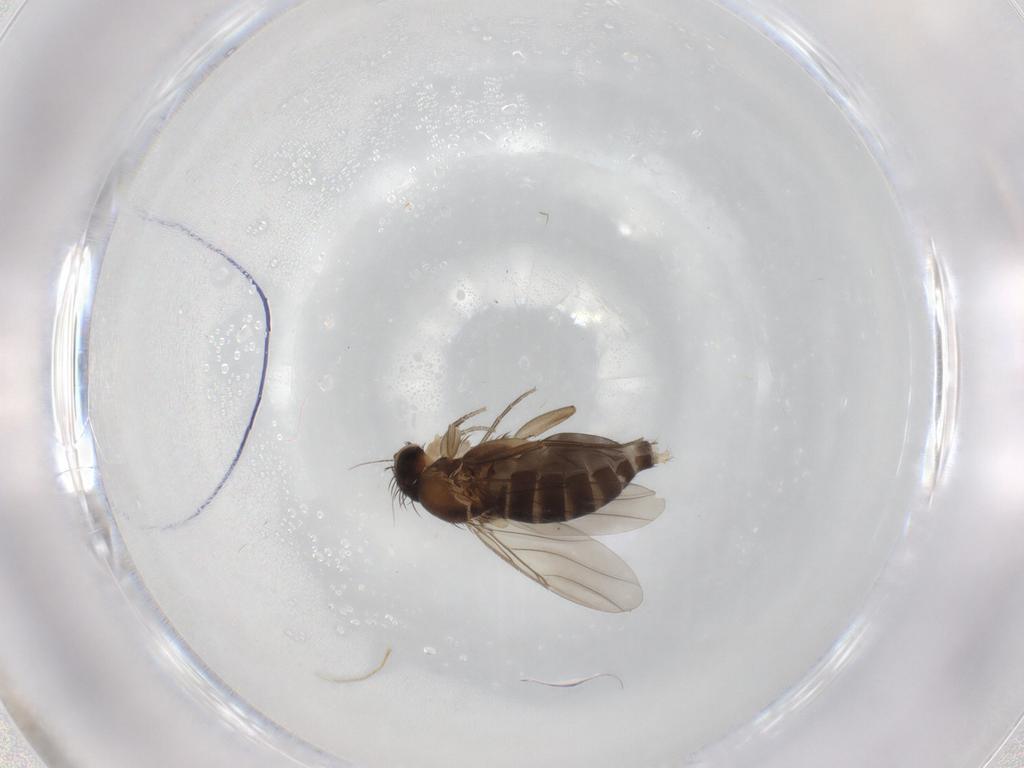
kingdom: Animalia
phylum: Arthropoda
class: Insecta
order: Diptera
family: Phoridae
